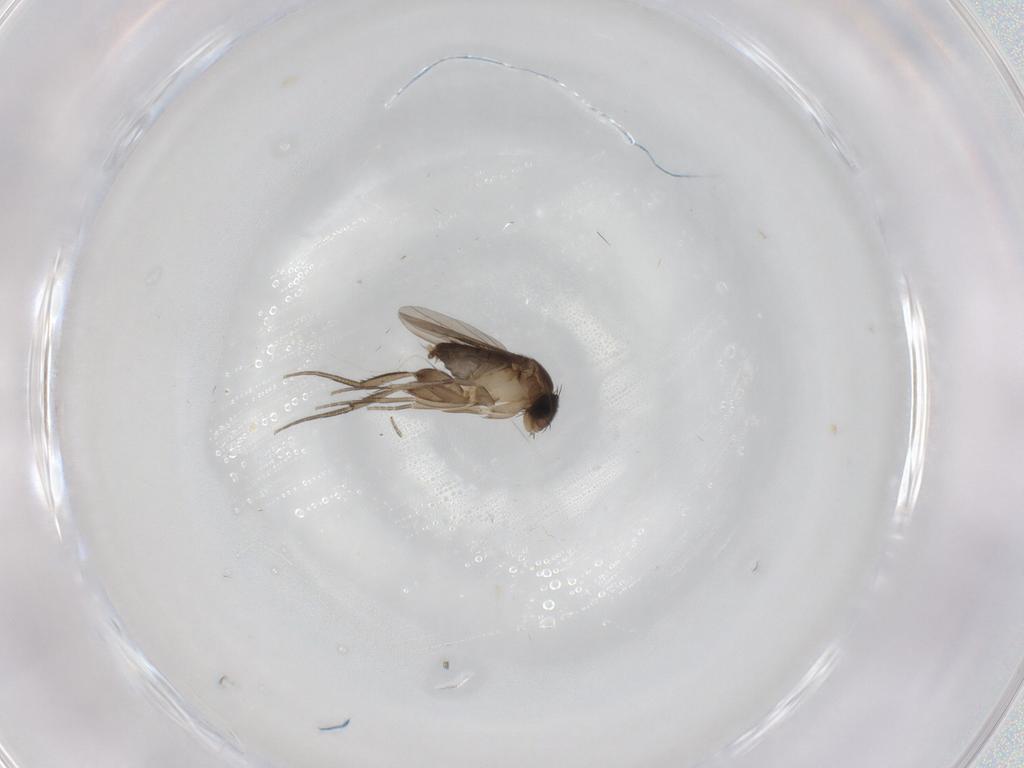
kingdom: Animalia
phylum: Arthropoda
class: Insecta
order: Diptera
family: Phoridae
